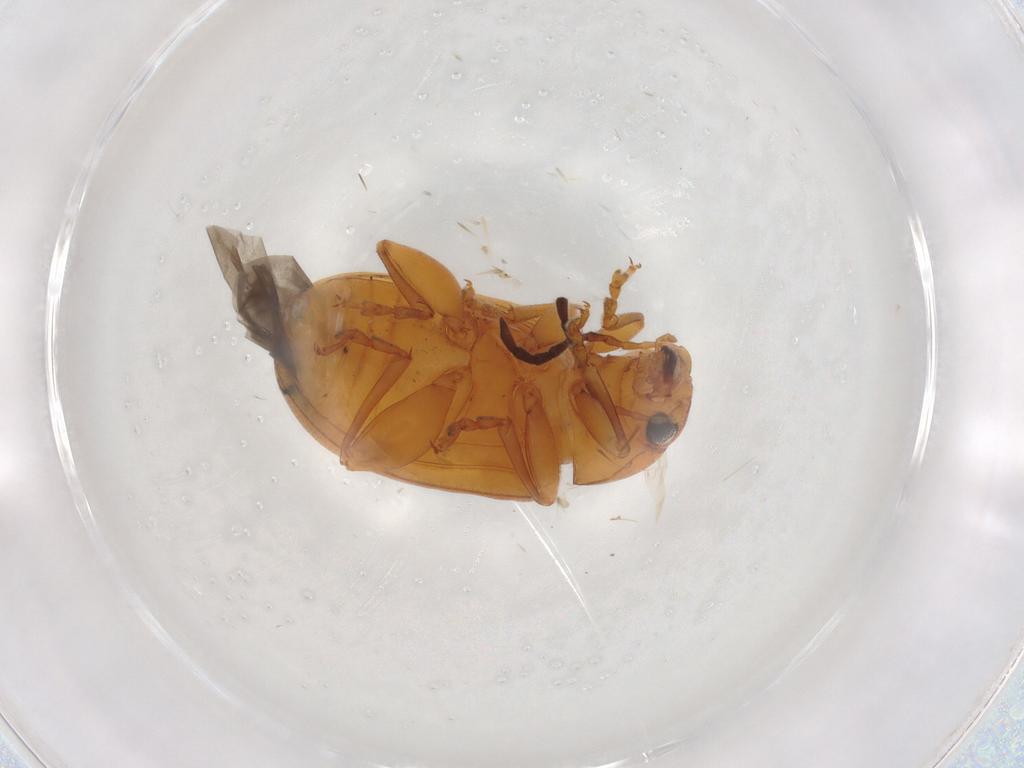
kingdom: Animalia
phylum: Arthropoda
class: Insecta
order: Coleoptera
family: Chrysomelidae
